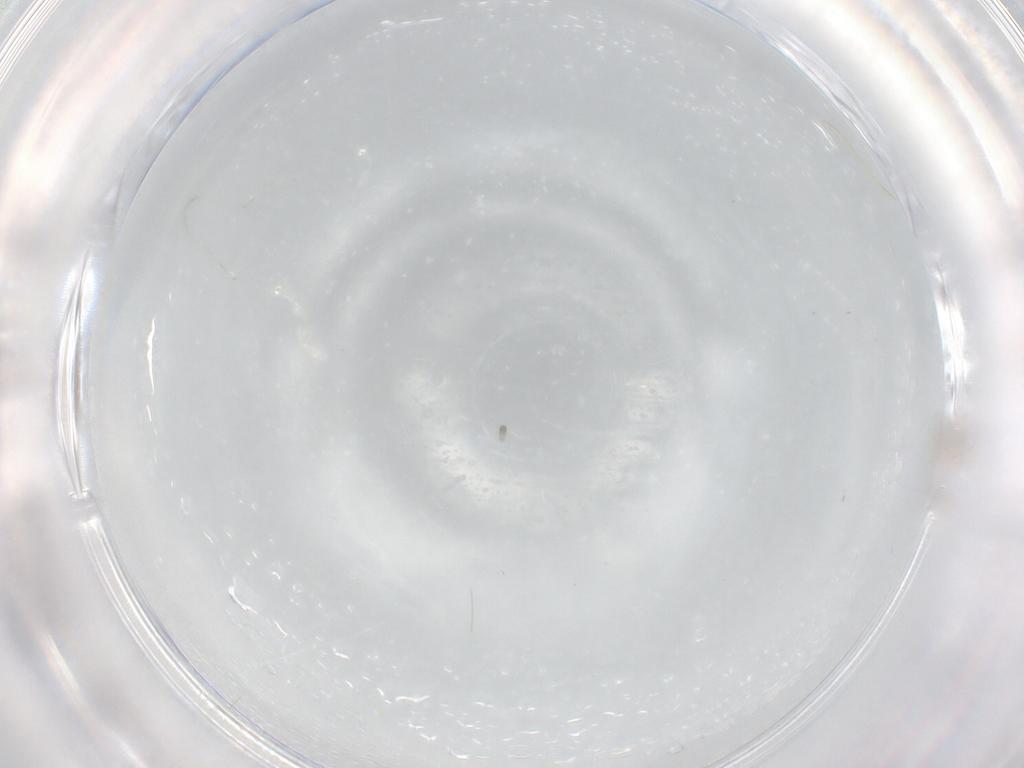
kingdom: Animalia
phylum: Arthropoda
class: Insecta
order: Diptera
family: Cecidomyiidae
